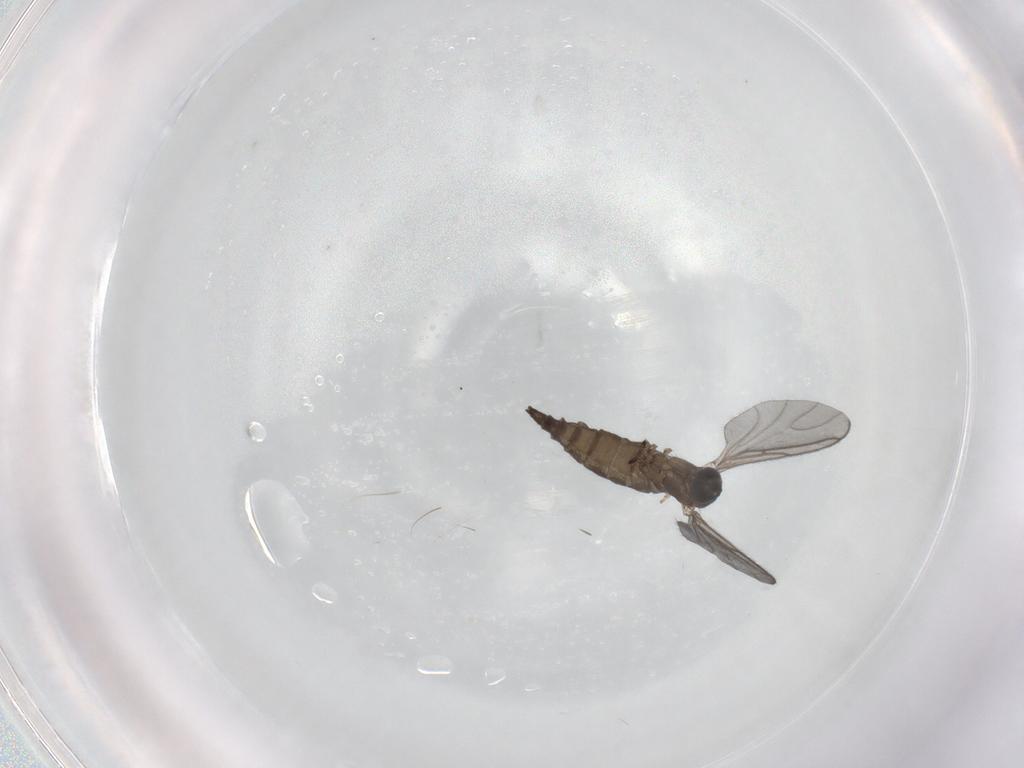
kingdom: Animalia
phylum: Arthropoda
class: Insecta
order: Diptera
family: Sciaridae
